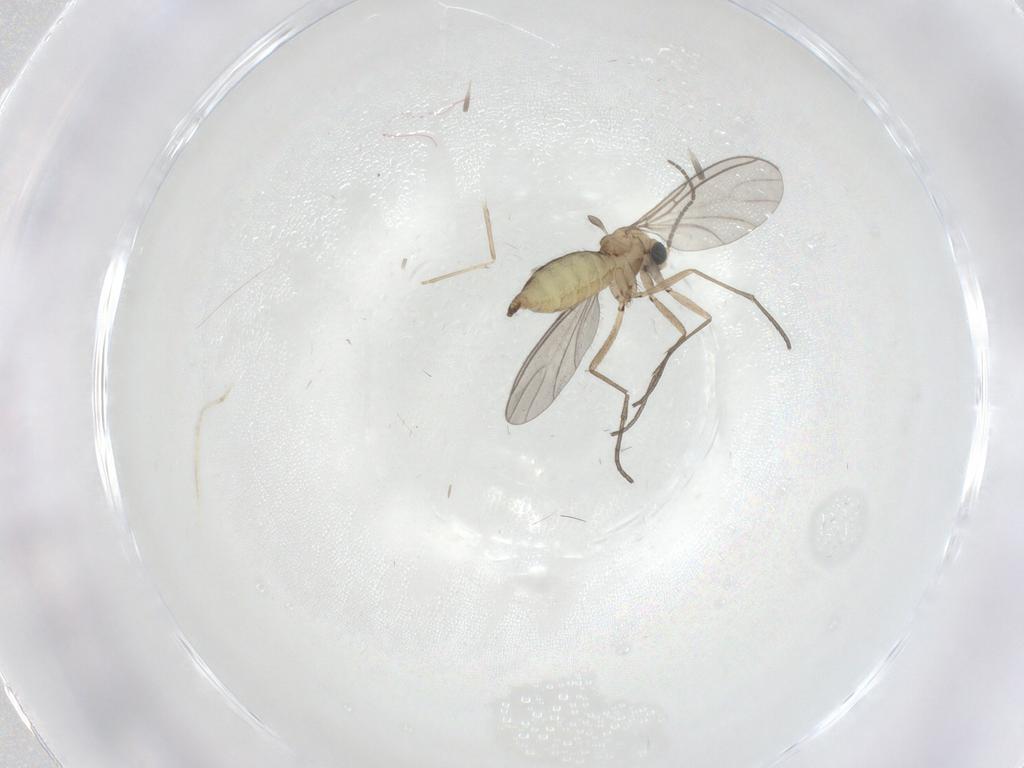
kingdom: Animalia
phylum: Arthropoda
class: Insecta
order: Diptera
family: Sciaridae
